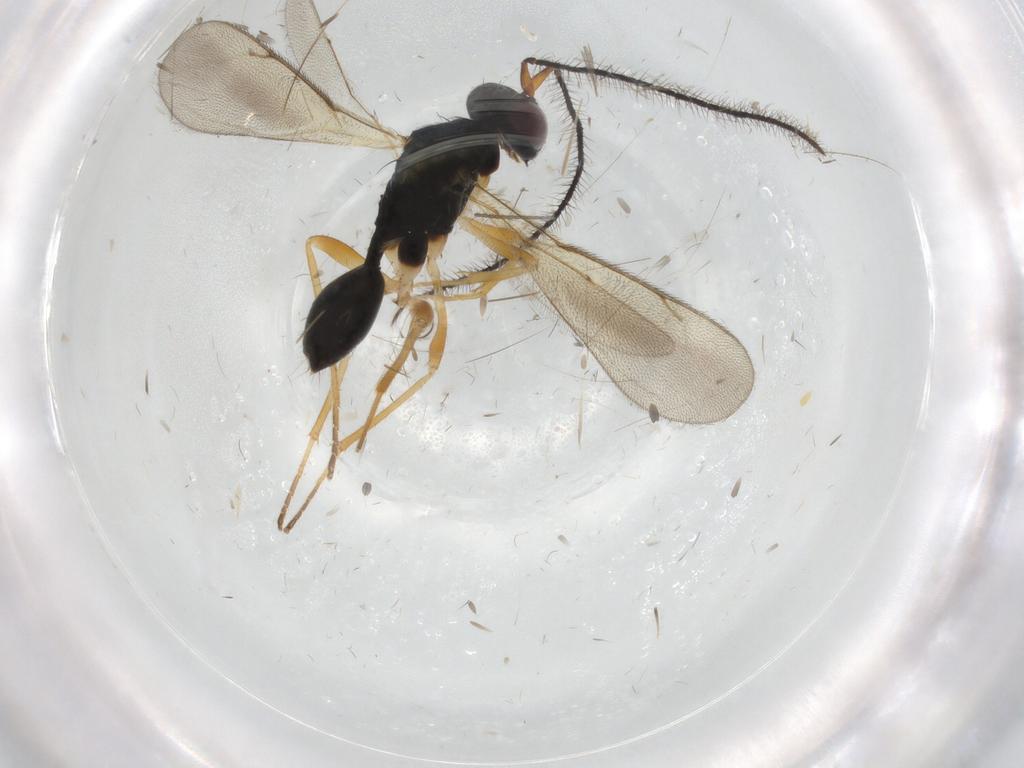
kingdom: Animalia
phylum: Arthropoda
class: Insecta
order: Hymenoptera
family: Diparidae
